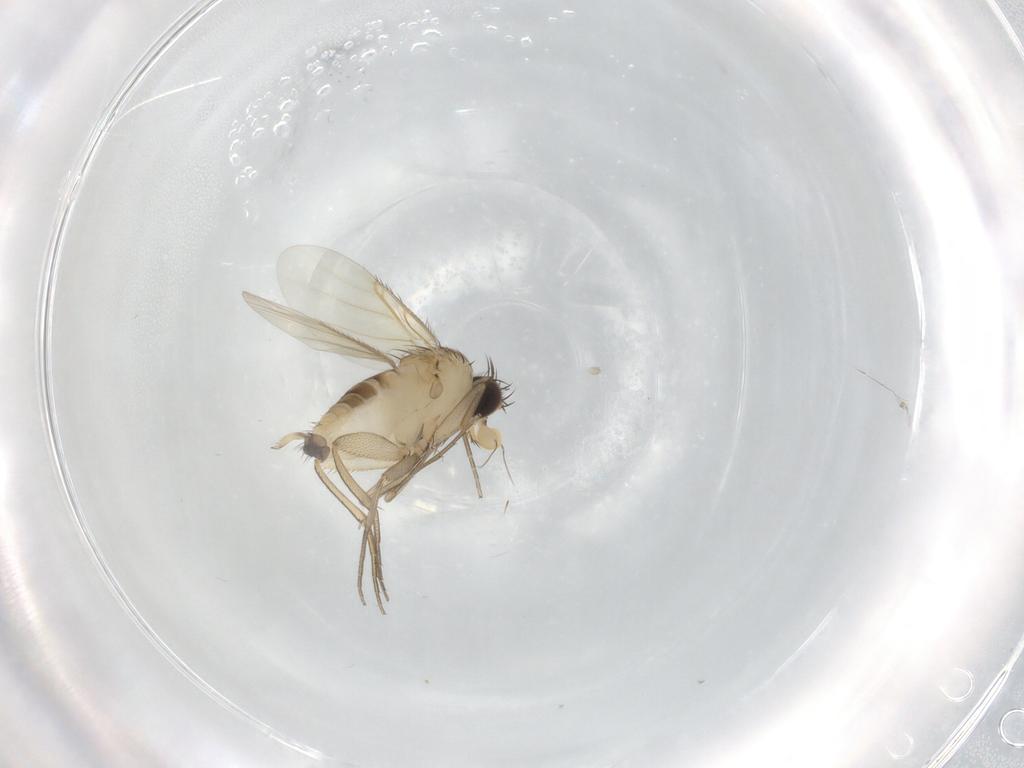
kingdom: Animalia
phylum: Arthropoda
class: Insecta
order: Diptera
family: Phoridae
